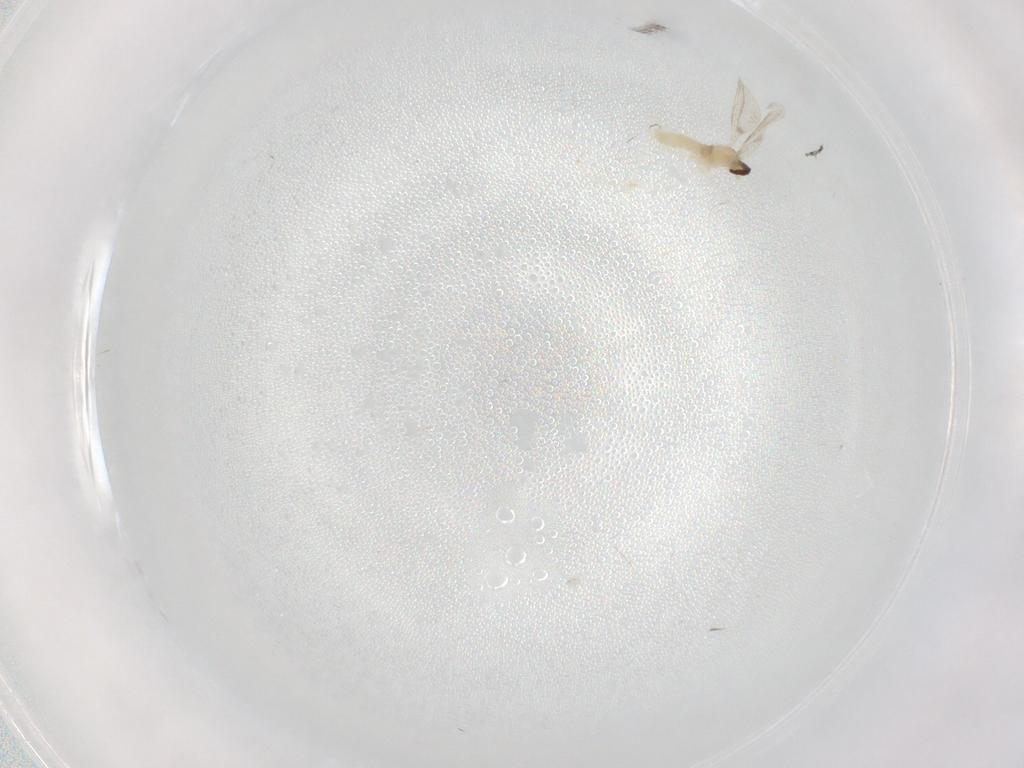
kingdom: Animalia
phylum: Arthropoda
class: Insecta
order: Diptera
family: Cecidomyiidae
